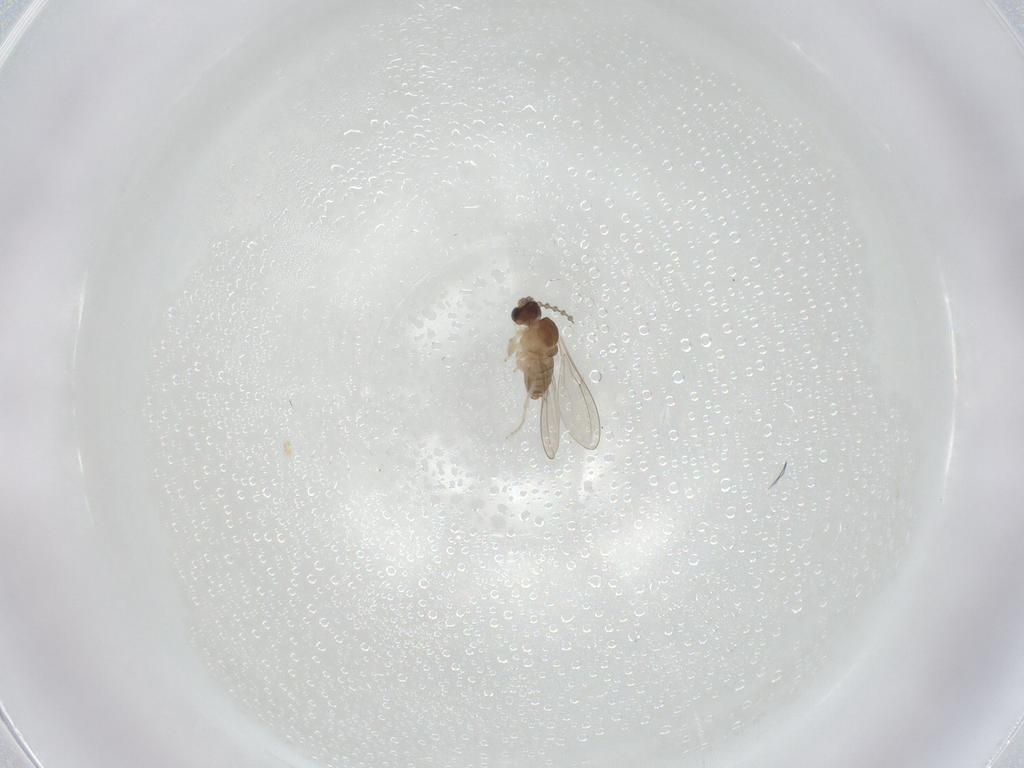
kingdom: Animalia
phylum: Arthropoda
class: Insecta
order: Diptera
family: Cecidomyiidae
